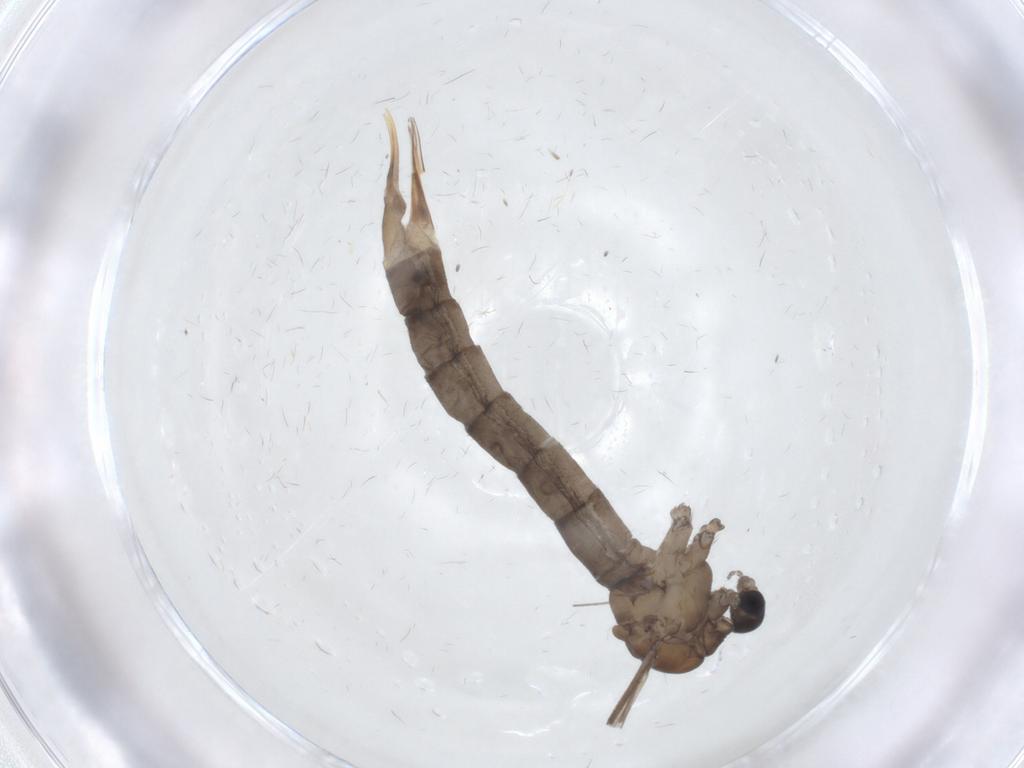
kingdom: Animalia
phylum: Arthropoda
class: Insecta
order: Diptera
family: Limoniidae
